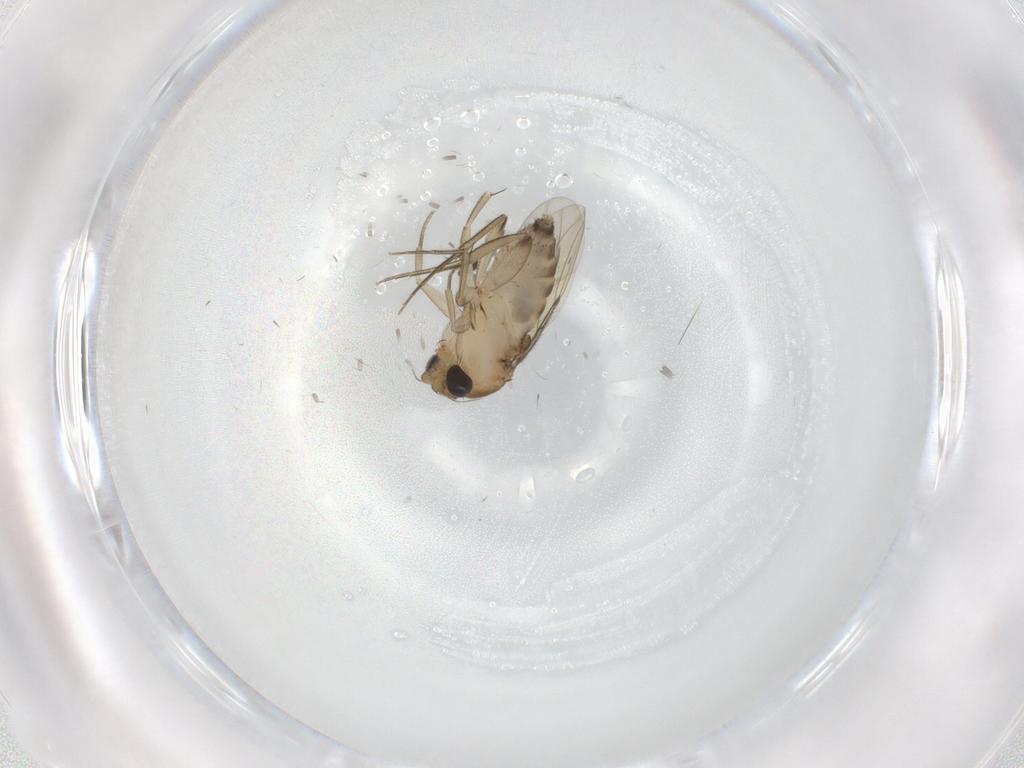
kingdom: Animalia
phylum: Arthropoda
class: Insecta
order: Diptera
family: Phoridae
